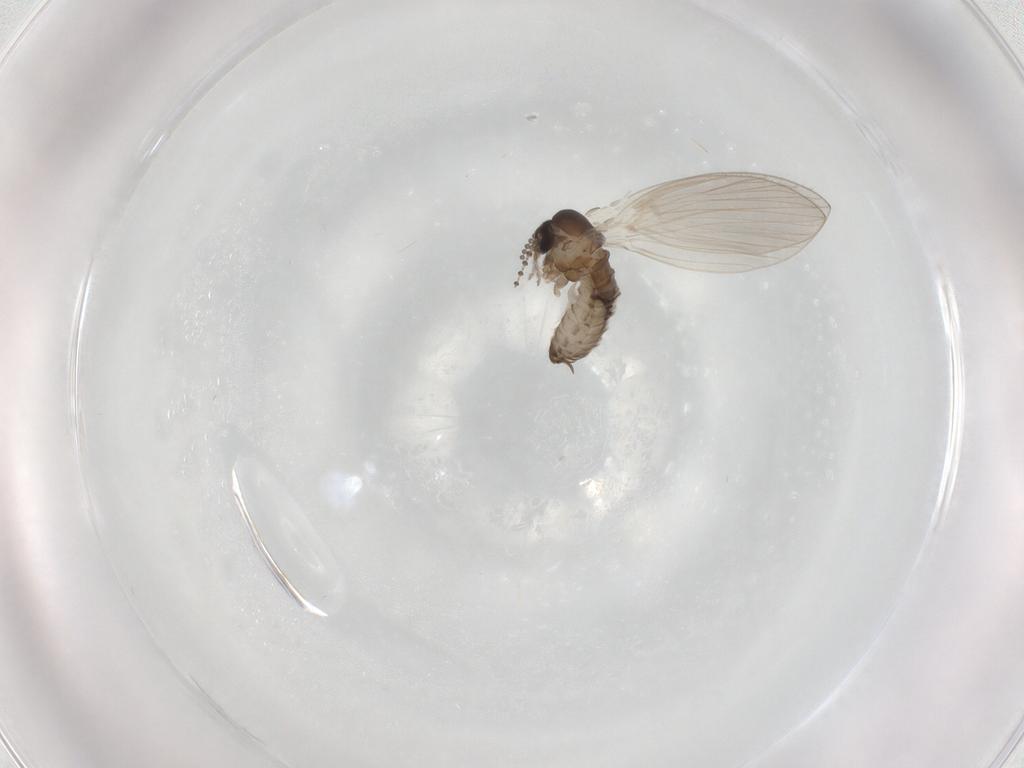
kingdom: Animalia
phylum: Arthropoda
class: Insecta
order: Diptera
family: Psychodidae
